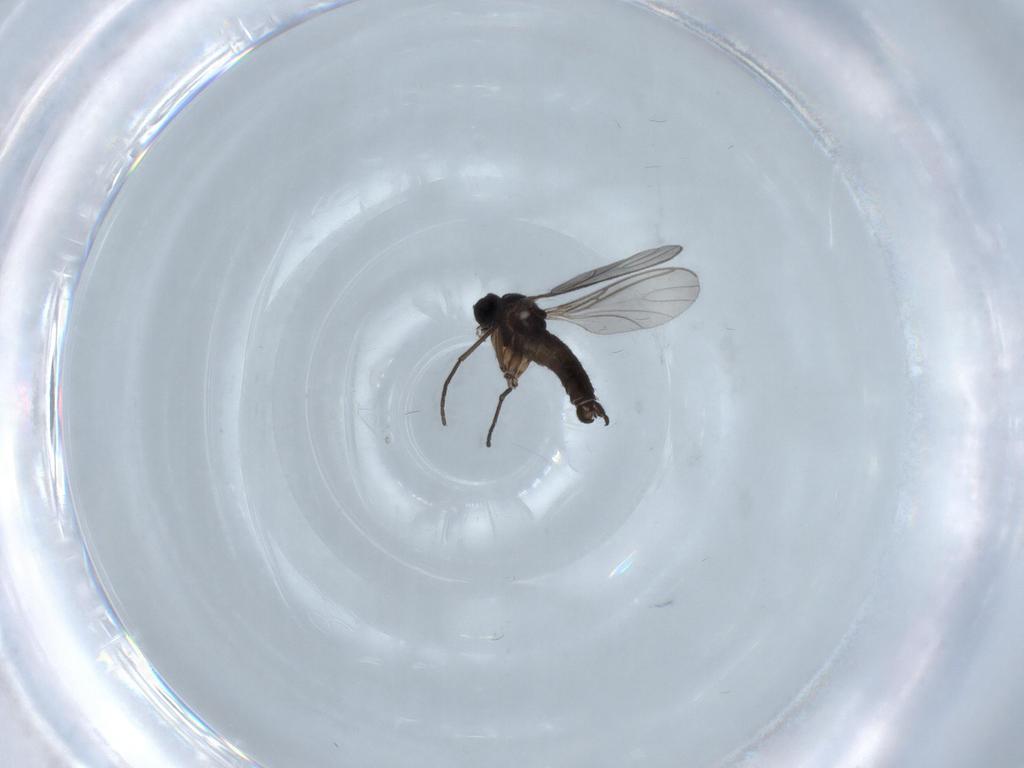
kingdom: Animalia
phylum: Arthropoda
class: Insecta
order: Diptera
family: Sciaridae
